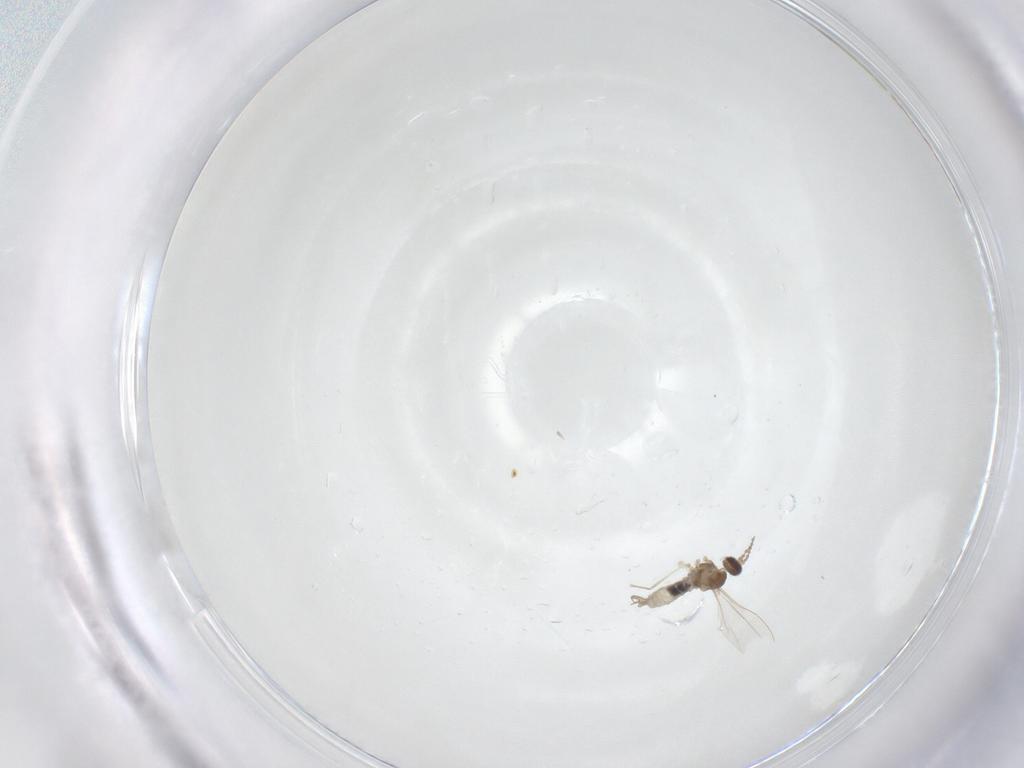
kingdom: Animalia
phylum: Arthropoda
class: Insecta
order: Diptera
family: Cecidomyiidae
